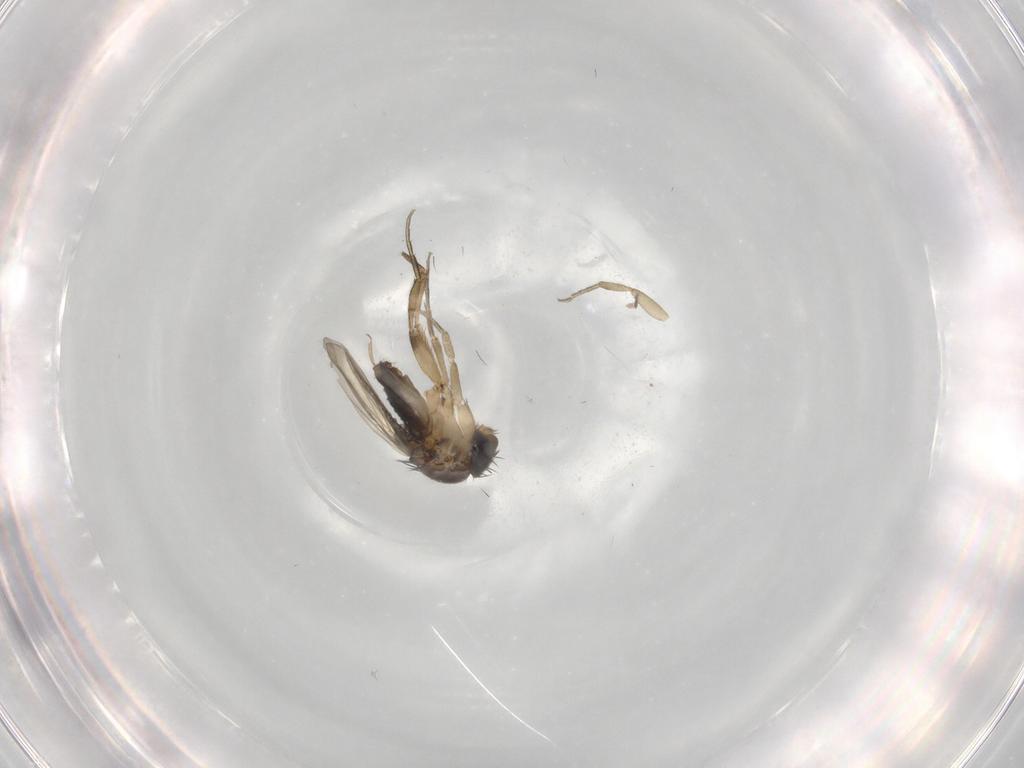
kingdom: Animalia
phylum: Arthropoda
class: Insecta
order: Diptera
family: Phoridae
